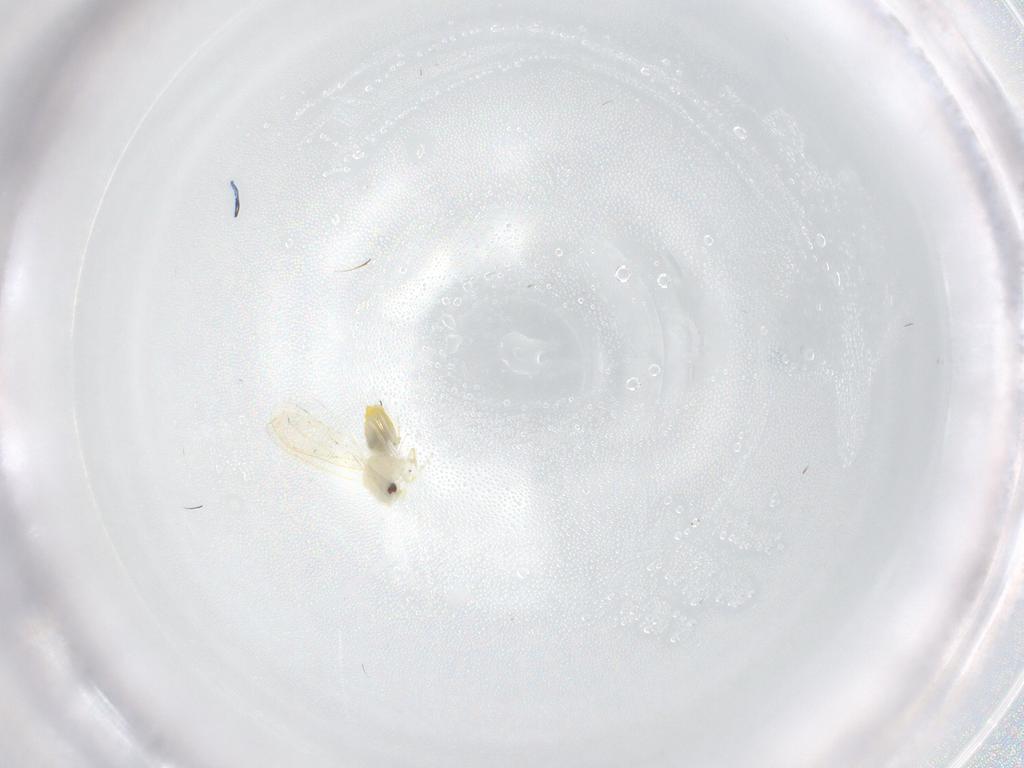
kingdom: Animalia
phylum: Arthropoda
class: Insecta
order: Hemiptera
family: Aleyrodidae
